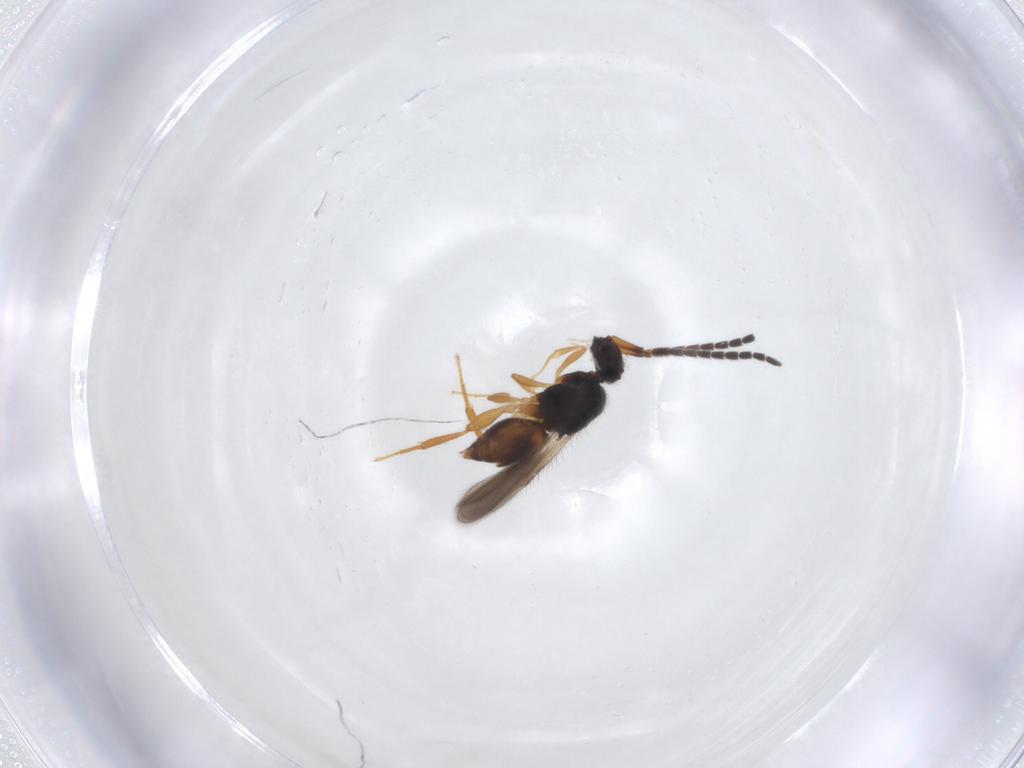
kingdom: Animalia
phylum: Arthropoda
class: Insecta
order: Hymenoptera
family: Ceraphronidae
